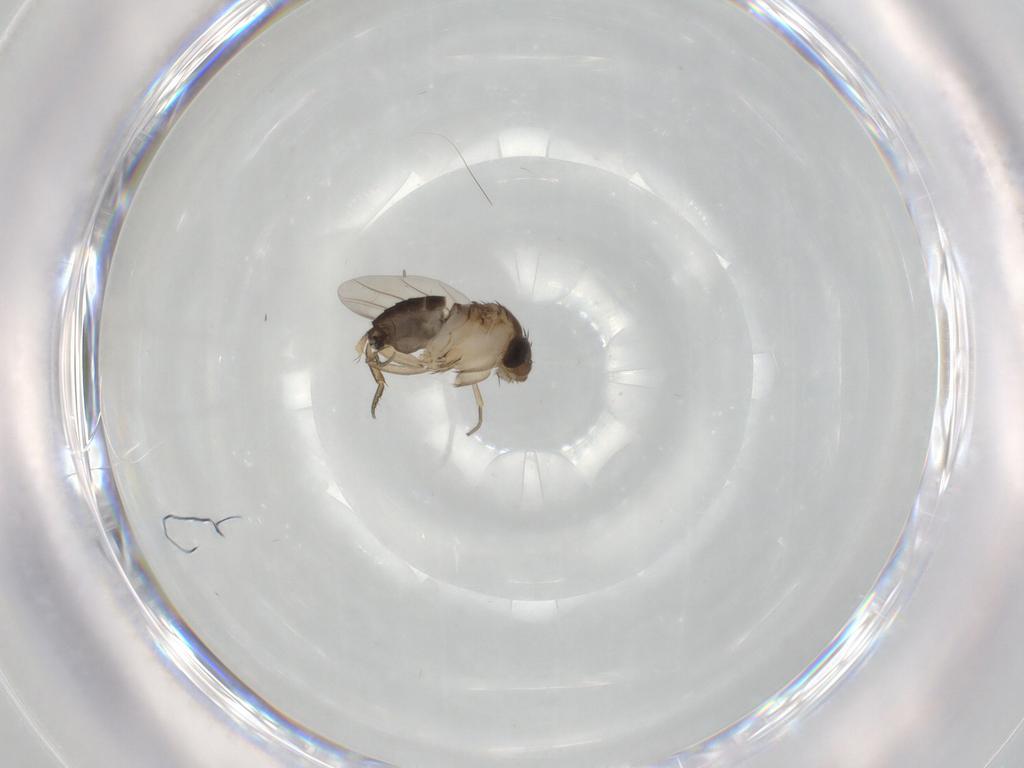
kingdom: Animalia
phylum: Arthropoda
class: Insecta
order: Diptera
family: Phoridae
